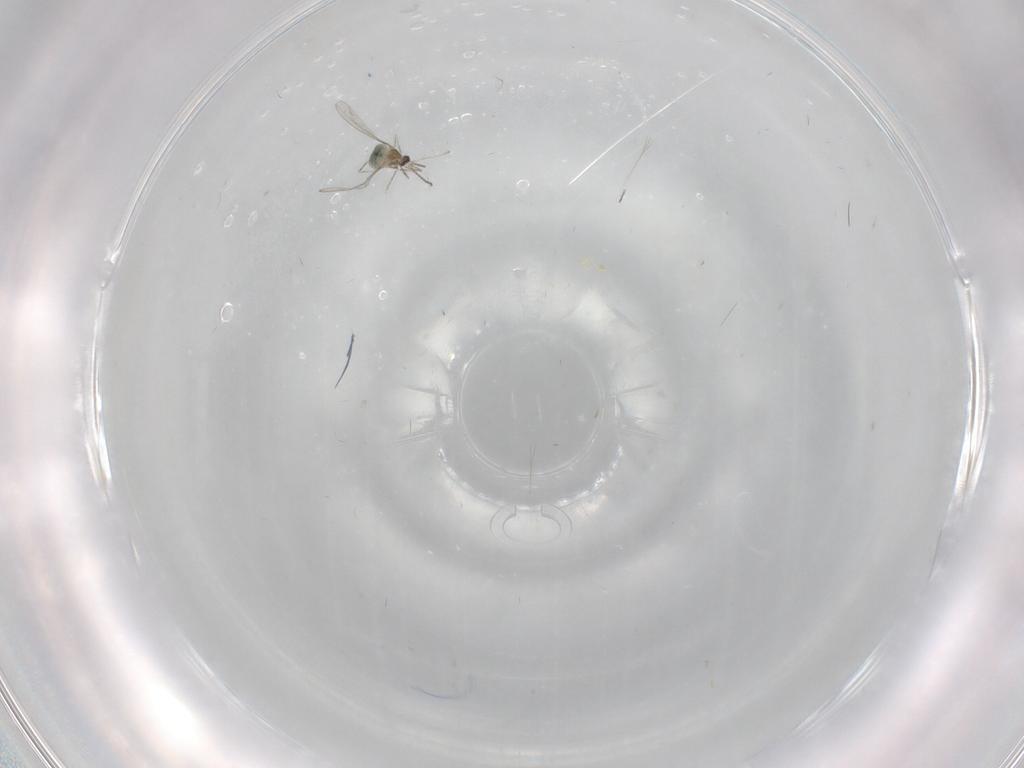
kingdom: Animalia
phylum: Arthropoda
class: Insecta
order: Diptera
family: Cecidomyiidae
